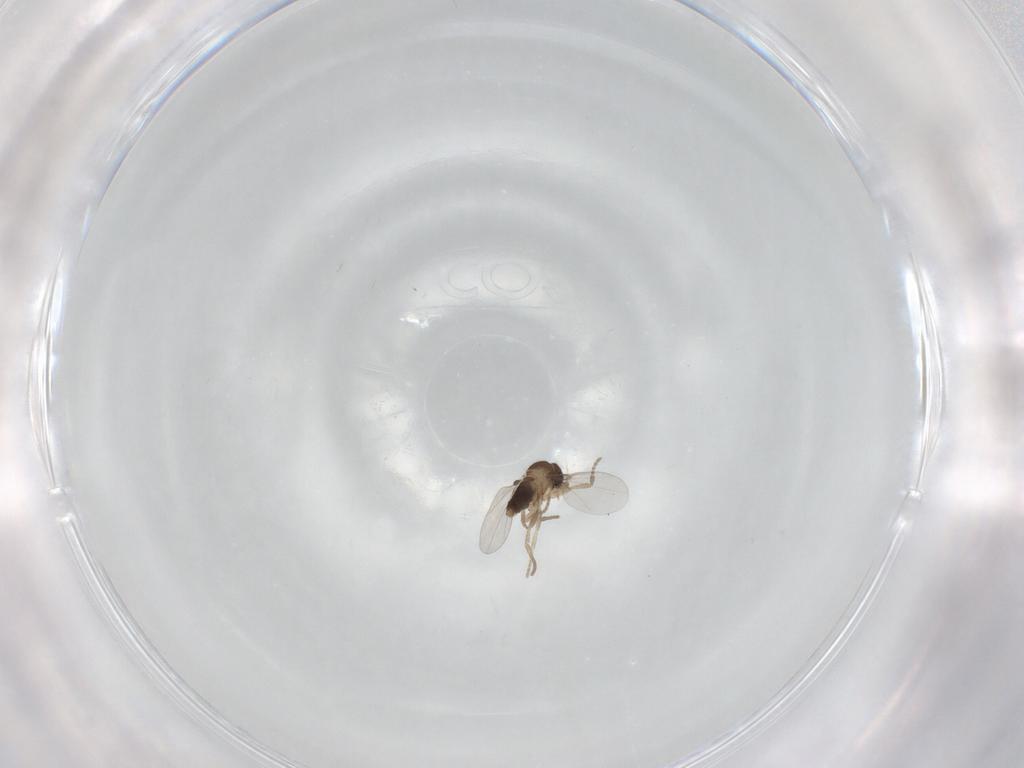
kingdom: Animalia
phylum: Arthropoda
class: Insecta
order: Diptera
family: Phoridae
